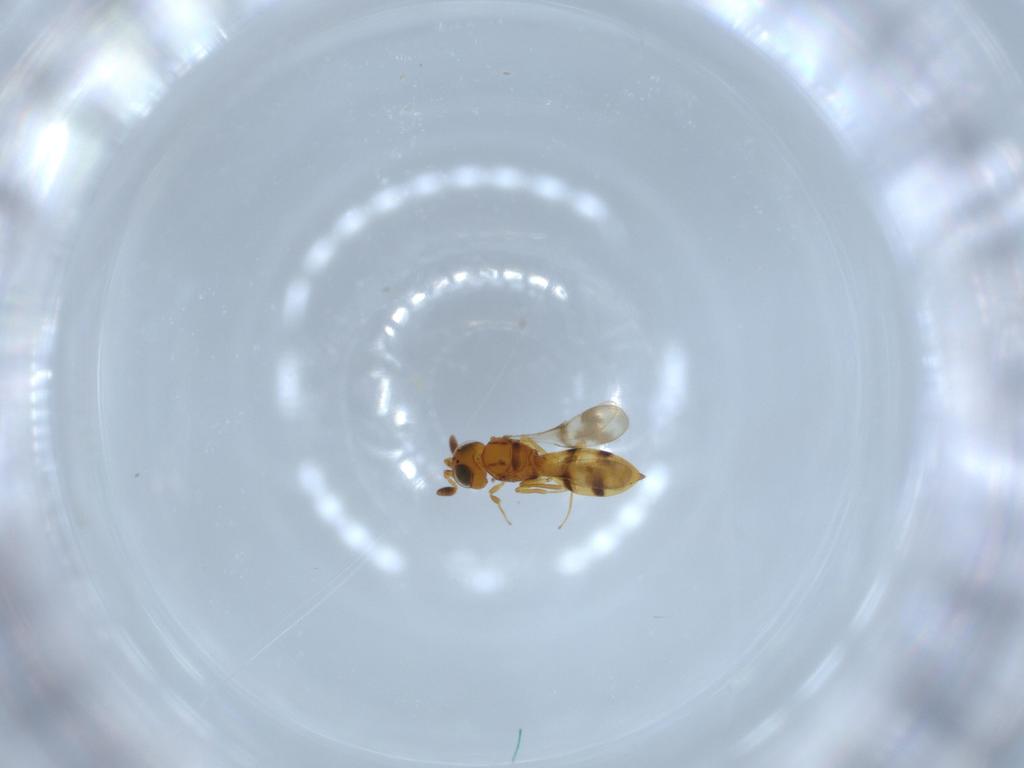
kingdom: Animalia
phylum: Arthropoda
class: Insecta
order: Hymenoptera
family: Scelionidae
